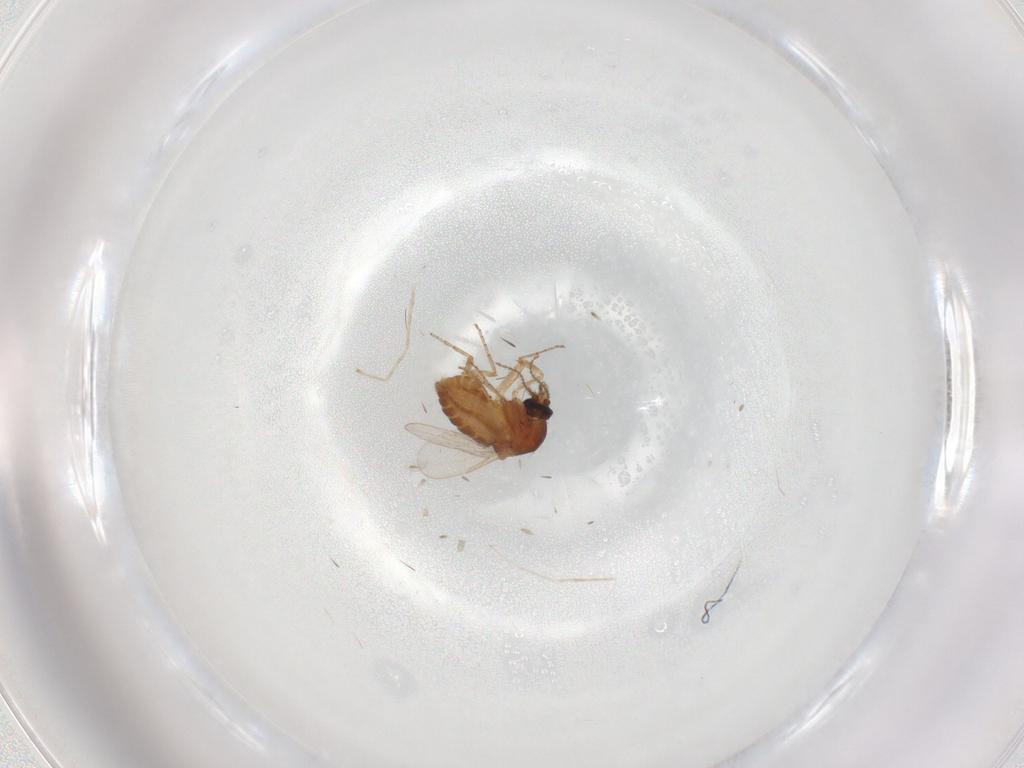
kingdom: Animalia
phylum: Arthropoda
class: Insecta
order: Diptera
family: Ceratopogonidae
